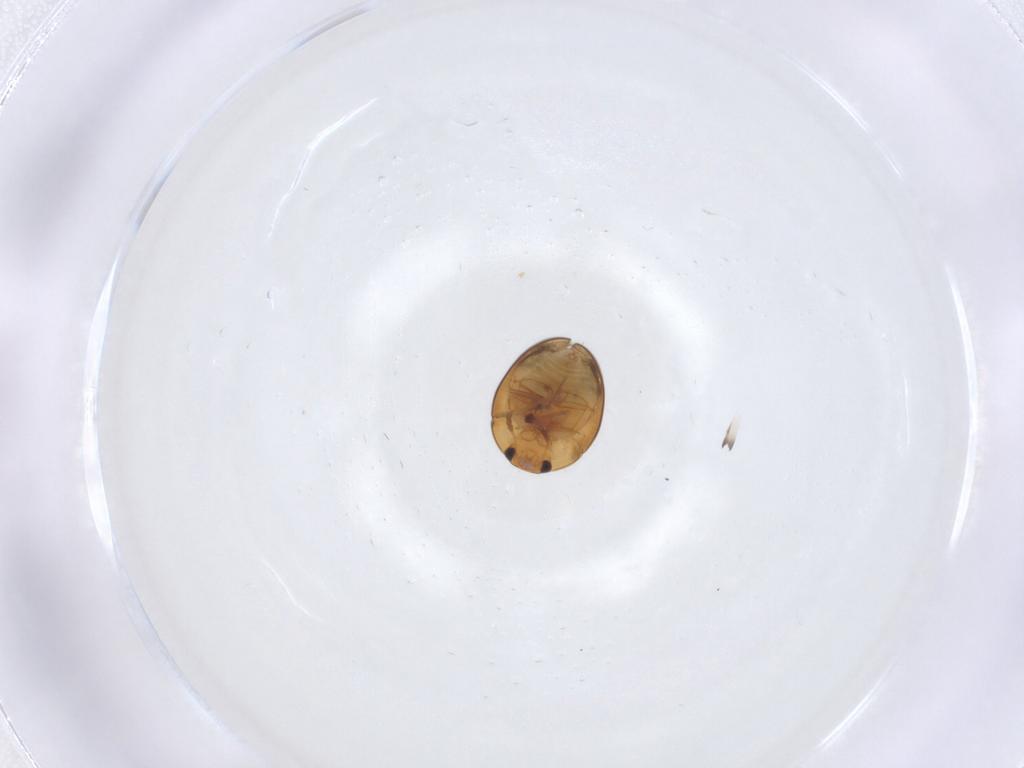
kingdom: Animalia
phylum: Arthropoda
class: Insecta
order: Coleoptera
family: Phalacridae
